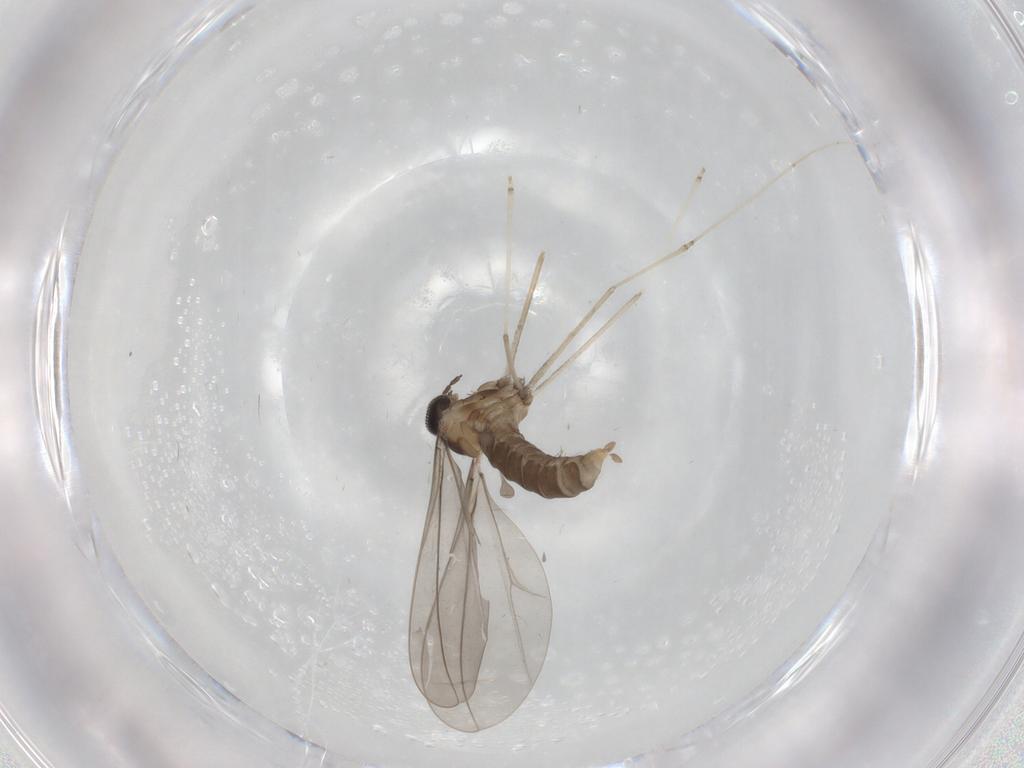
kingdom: Animalia
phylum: Arthropoda
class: Insecta
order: Diptera
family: Cecidomyiidae
